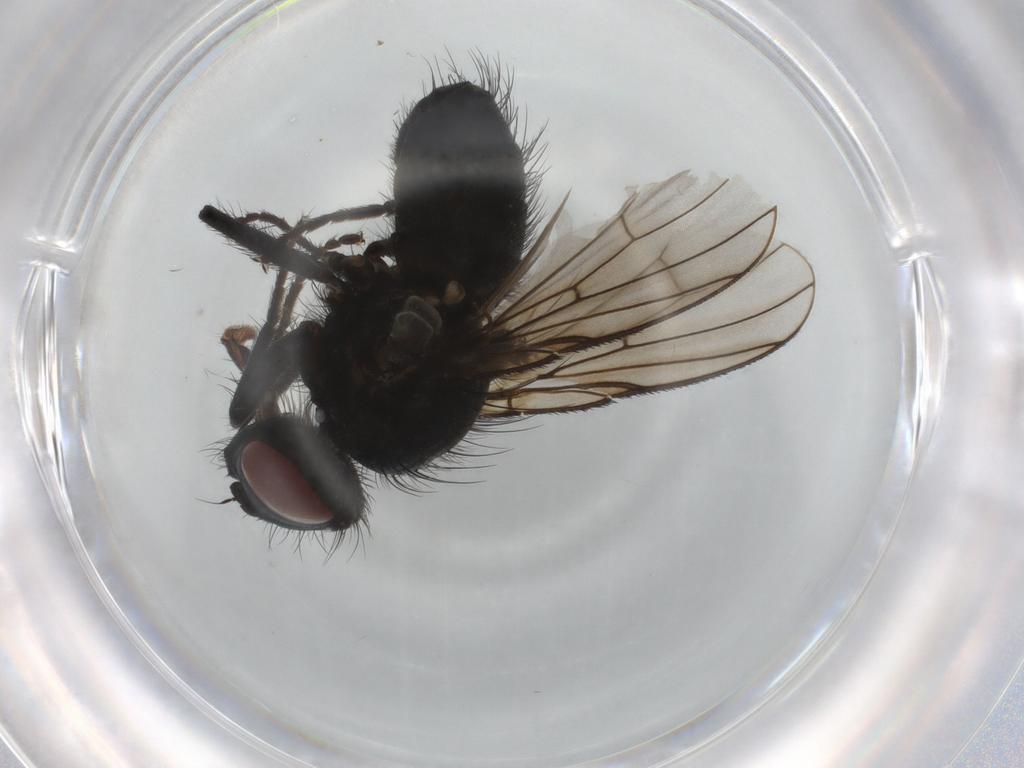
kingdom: Animalia
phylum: Arthropoda
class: Insecta
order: Diptera
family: Muscidae
